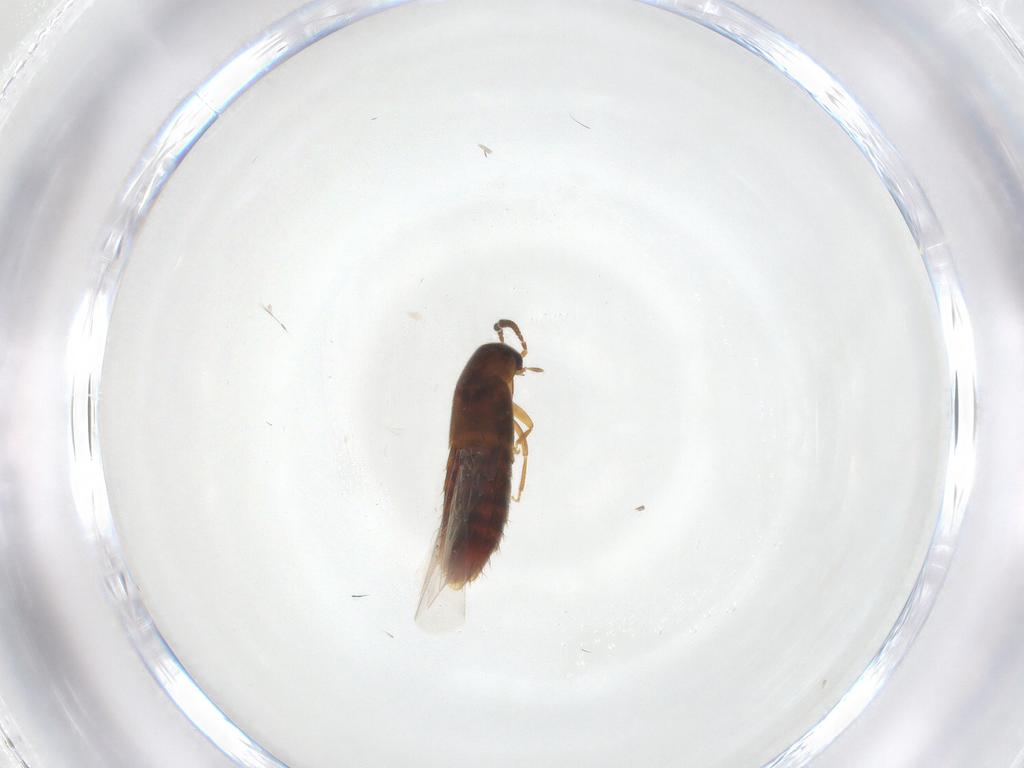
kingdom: Animalia
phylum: Arthropoda
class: Insecta
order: Coleoptera
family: Staphylinidae
